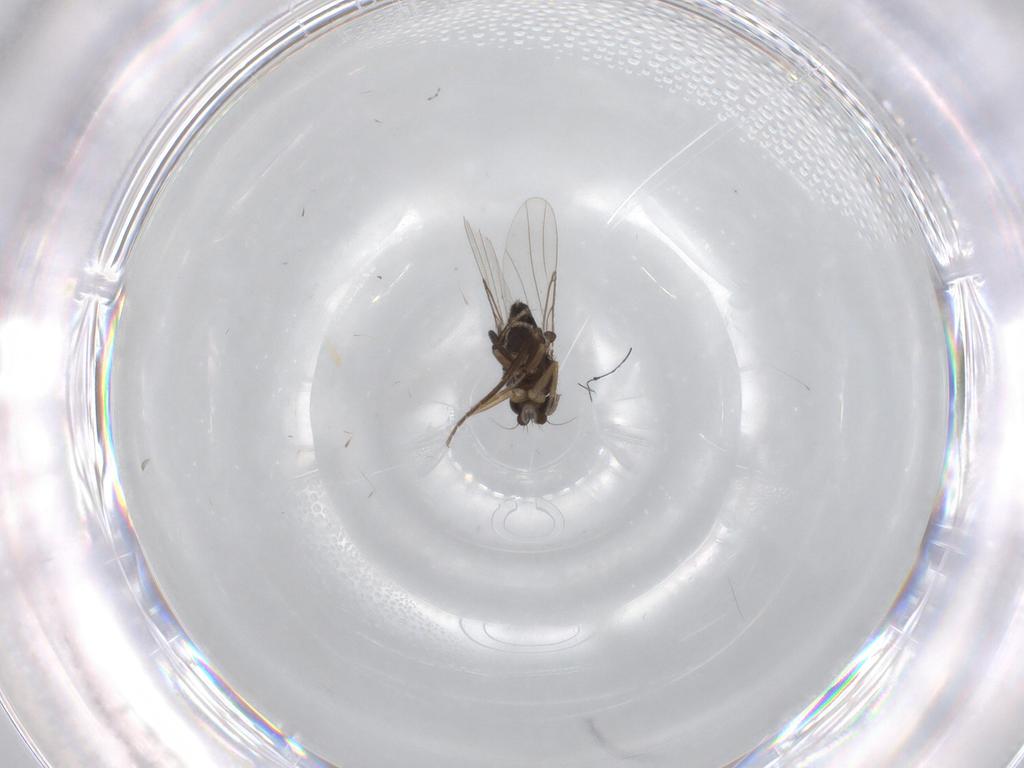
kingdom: Animalia
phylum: Arthropoda
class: Insecta
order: Diptera
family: Phoridae
